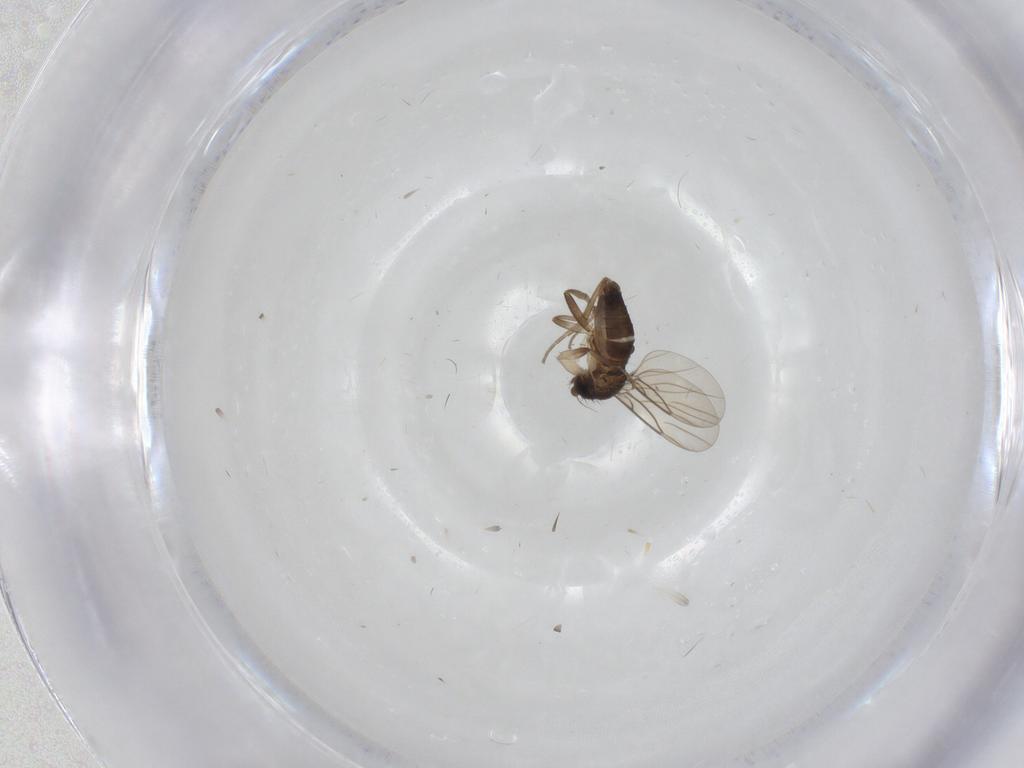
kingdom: Animalia
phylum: Arthropoda
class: Insecta
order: Diptera
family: Phoridae
